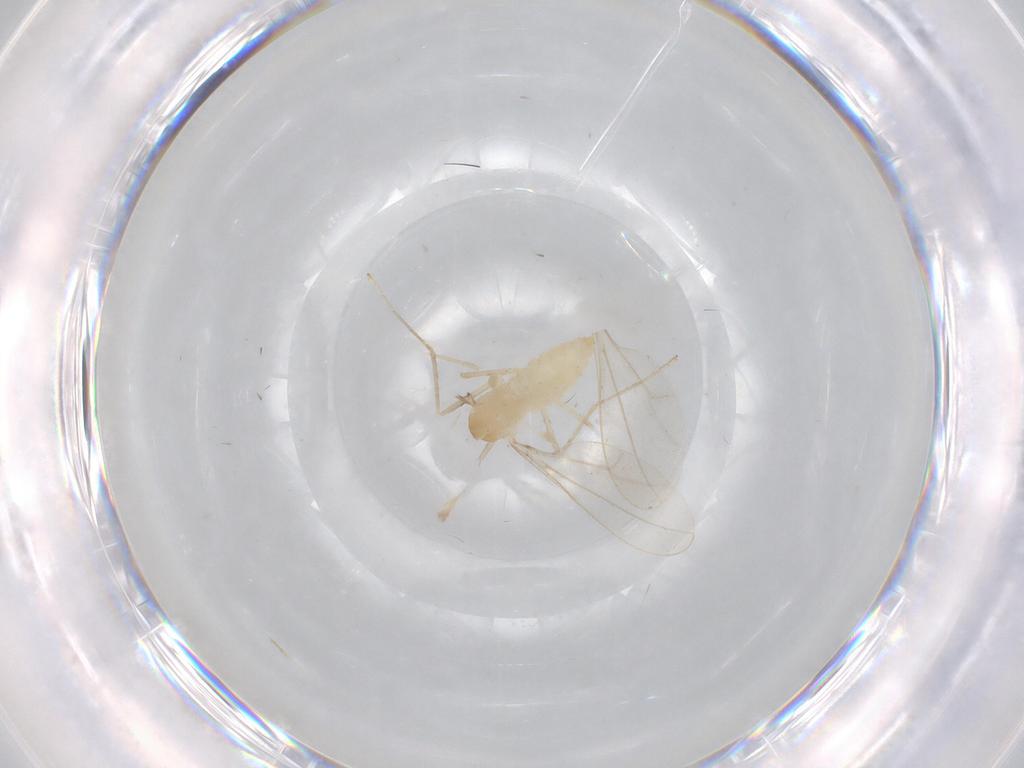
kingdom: Animalia
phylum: Arthropoda
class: Insecta
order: Diptera
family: Cecidomyiidae
